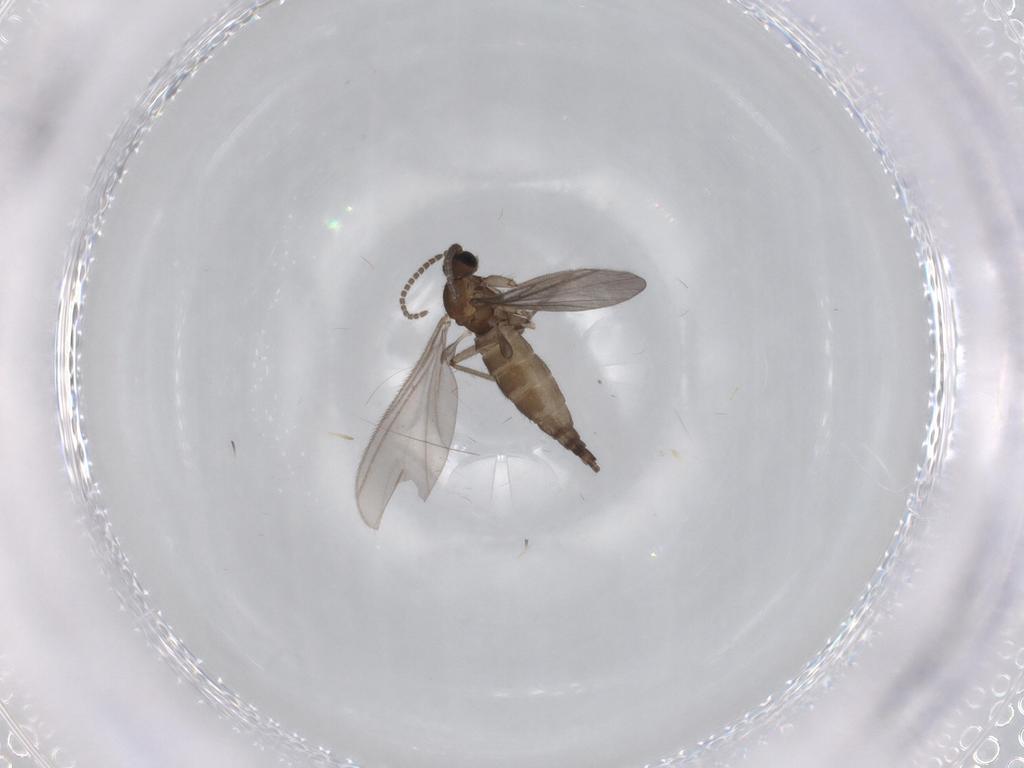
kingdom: Animalia
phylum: Arthropoda
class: Insecta
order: Diptera
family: Sciaridae
